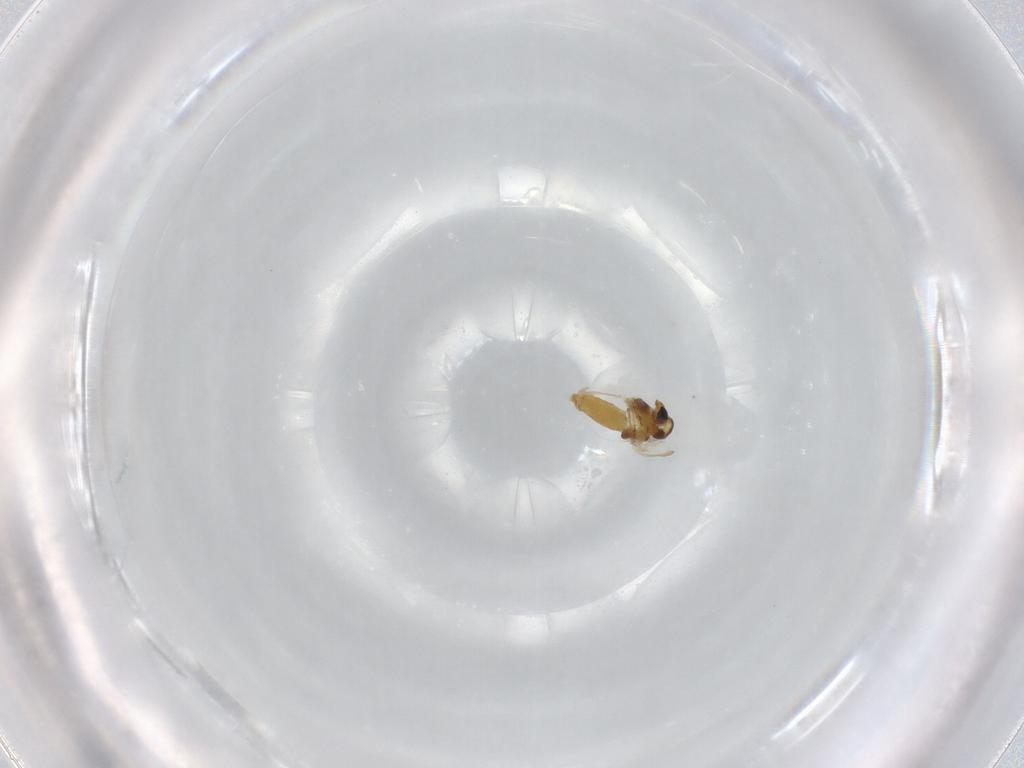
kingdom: Animalia
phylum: Arthropoda
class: Insecta
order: Diptera
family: Chironomidae
